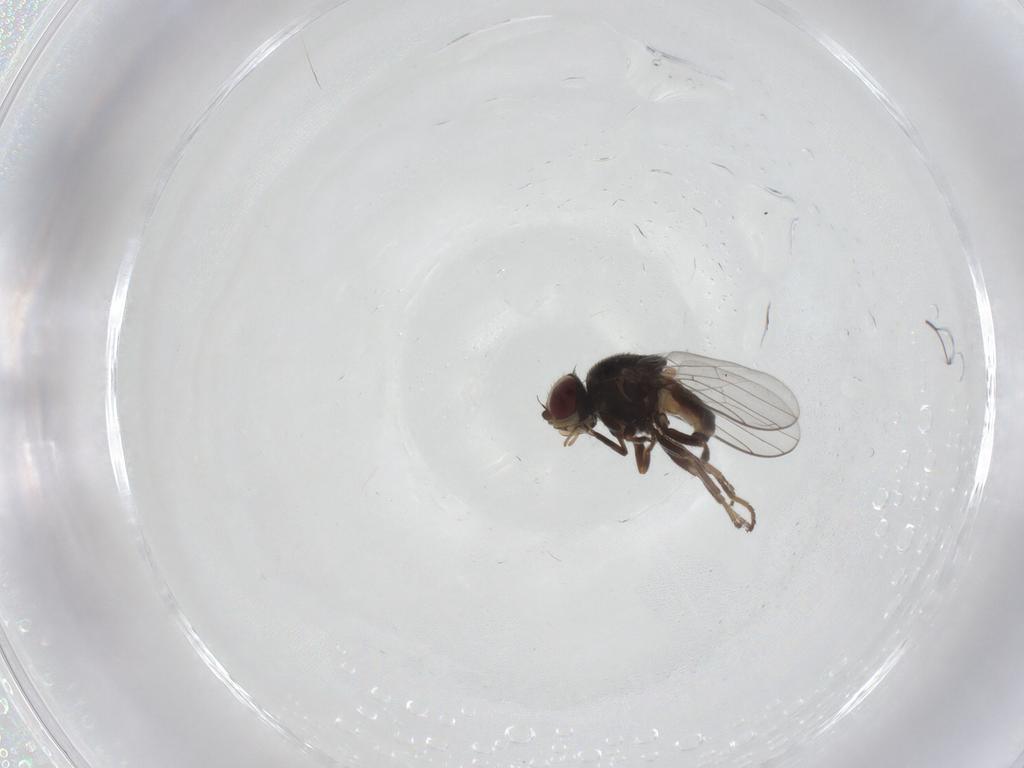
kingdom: Animalia
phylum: Arthropoda
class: Insecta
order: Diptera
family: Chloropidae
